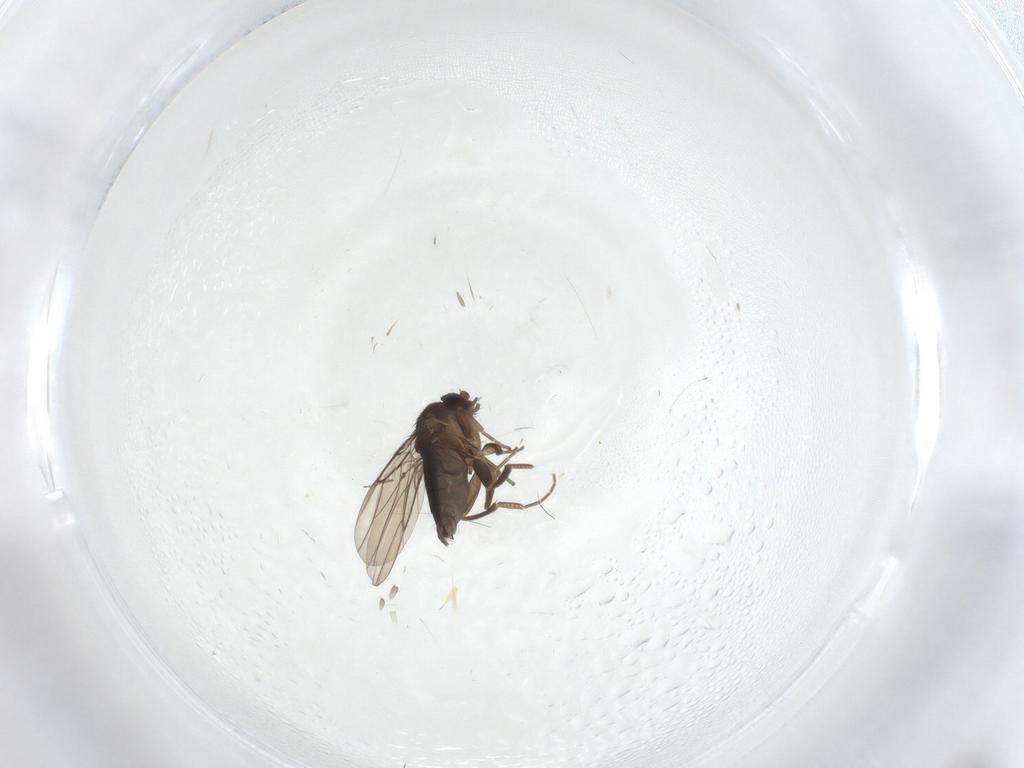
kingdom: Animalia
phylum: Arthropoda
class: Insecta
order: Diptera
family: Cecidomyiidae
